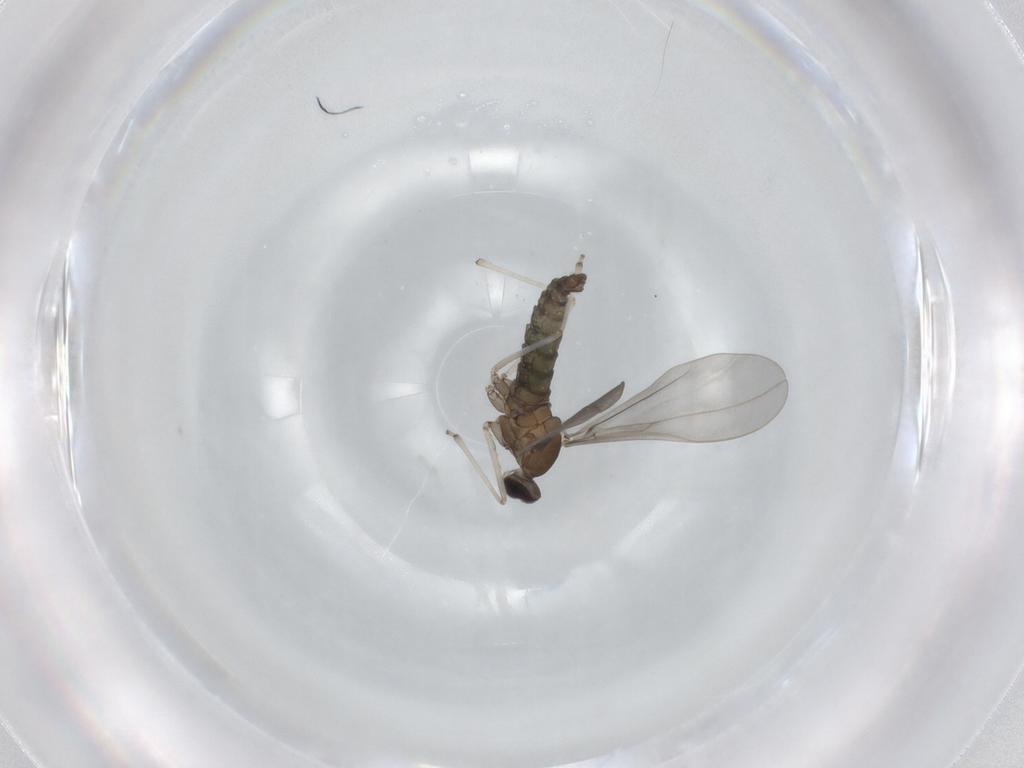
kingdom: Animalia
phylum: Arthropoda
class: Insecta
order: Diptera
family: Cecidomyiidae
